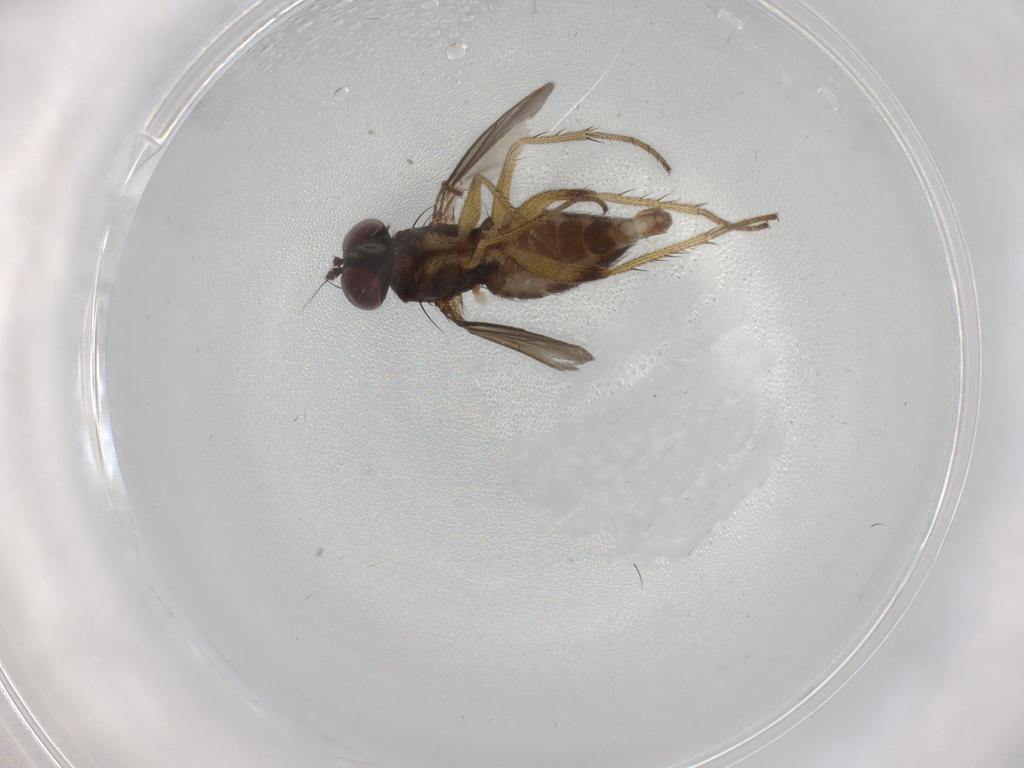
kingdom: Animalia
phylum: Arthropoda
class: Insecta
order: Diptera
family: Dolichopodidae
